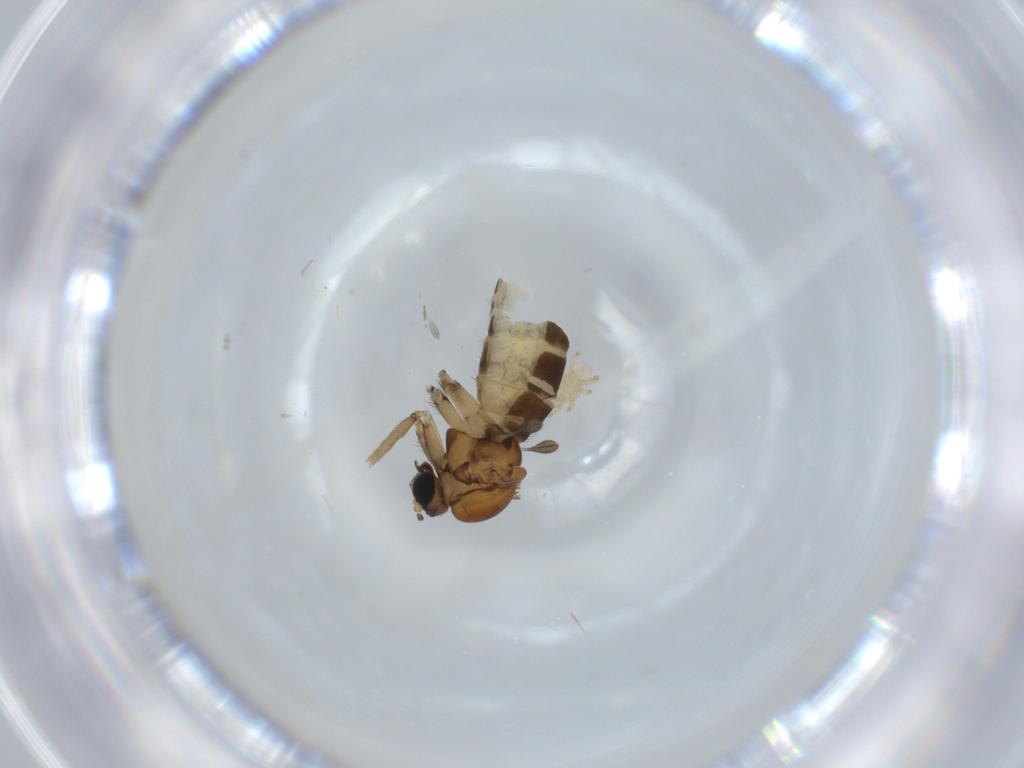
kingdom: Animalia
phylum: Arthropoda
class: Insecta
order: Diptera
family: Sciaridae
